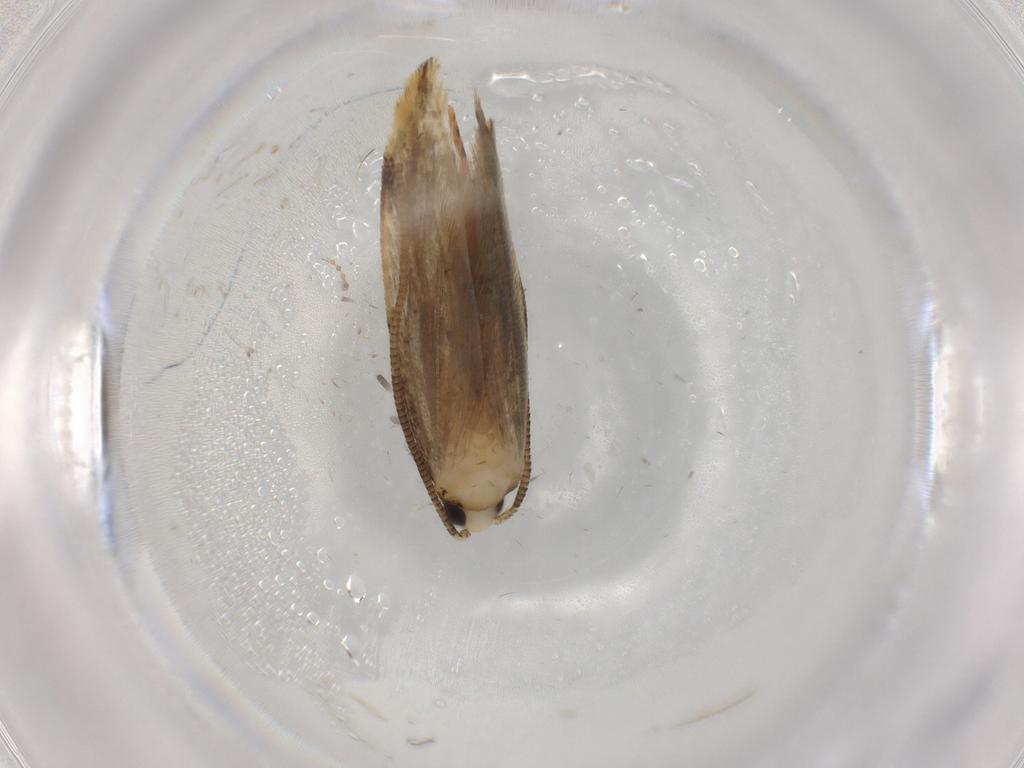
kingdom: Animalia
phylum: Arthropoda
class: Insecta
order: Lepidoptera
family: Tineidae
